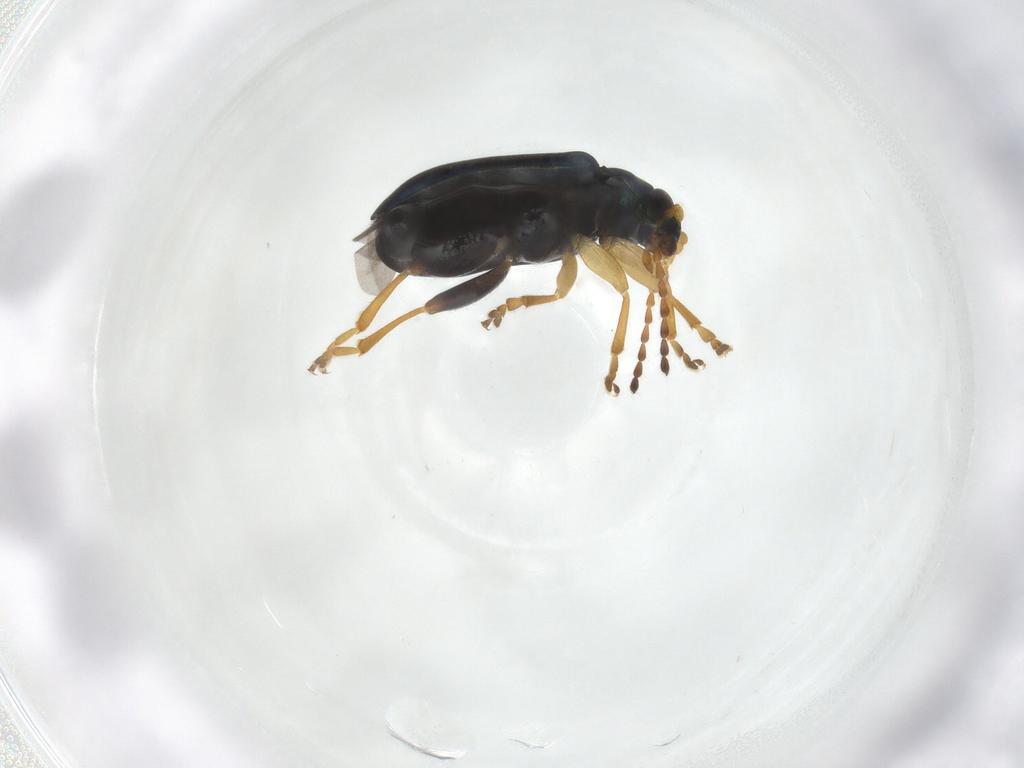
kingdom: Animalia
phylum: Arthropoda
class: Insecta
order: Coleoptera
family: Chrysomelidae
